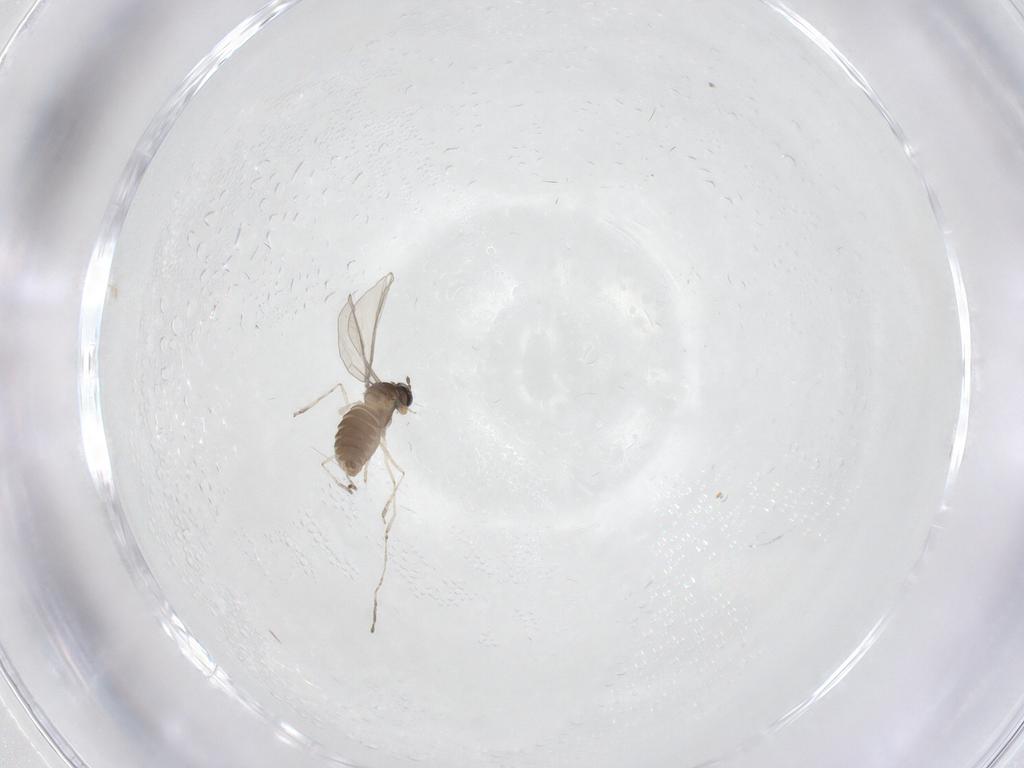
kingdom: Animalia
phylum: Arthropoda
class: Insecta
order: Diptera
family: Cecidomyiidae
